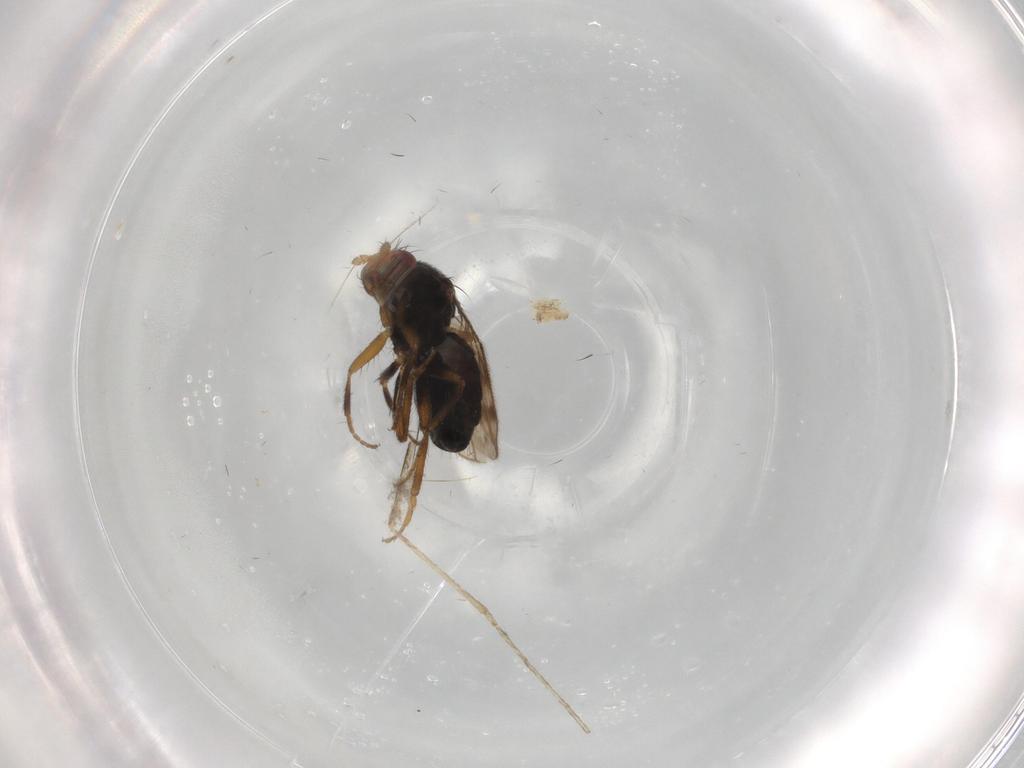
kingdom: Animalia
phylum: Arthropoda
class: Insecta
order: Diptera
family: Sphaeroceridae
